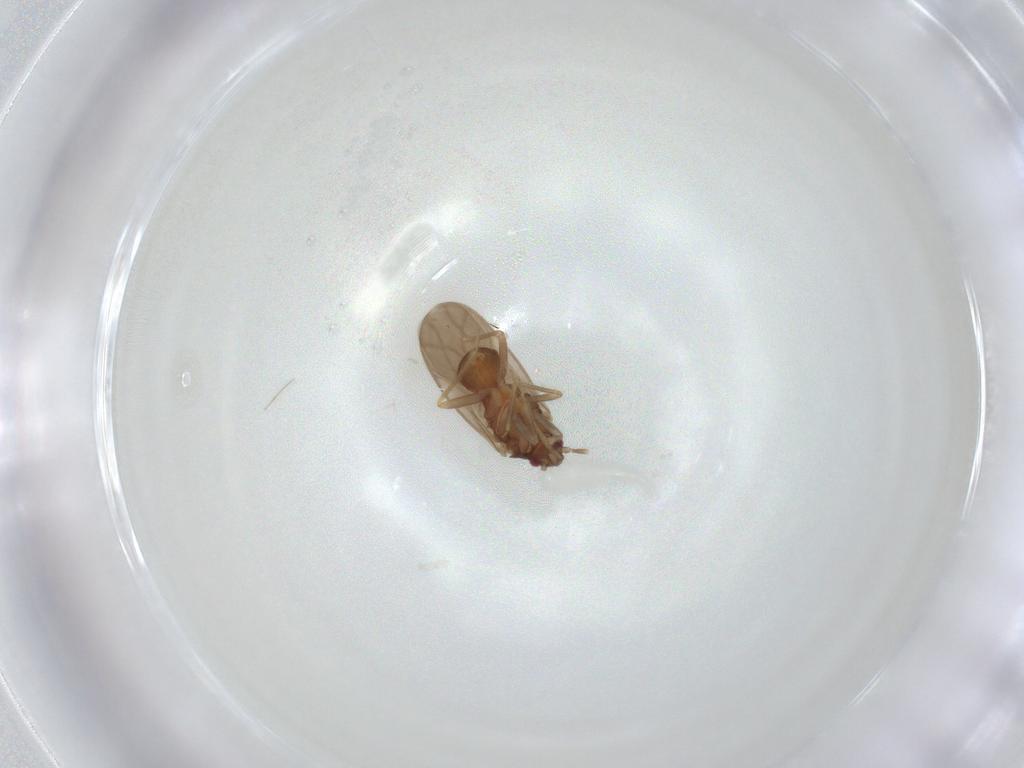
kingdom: Animalia
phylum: Arthropoda
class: Insecta
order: Hemiptera
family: Ceratocombidae
